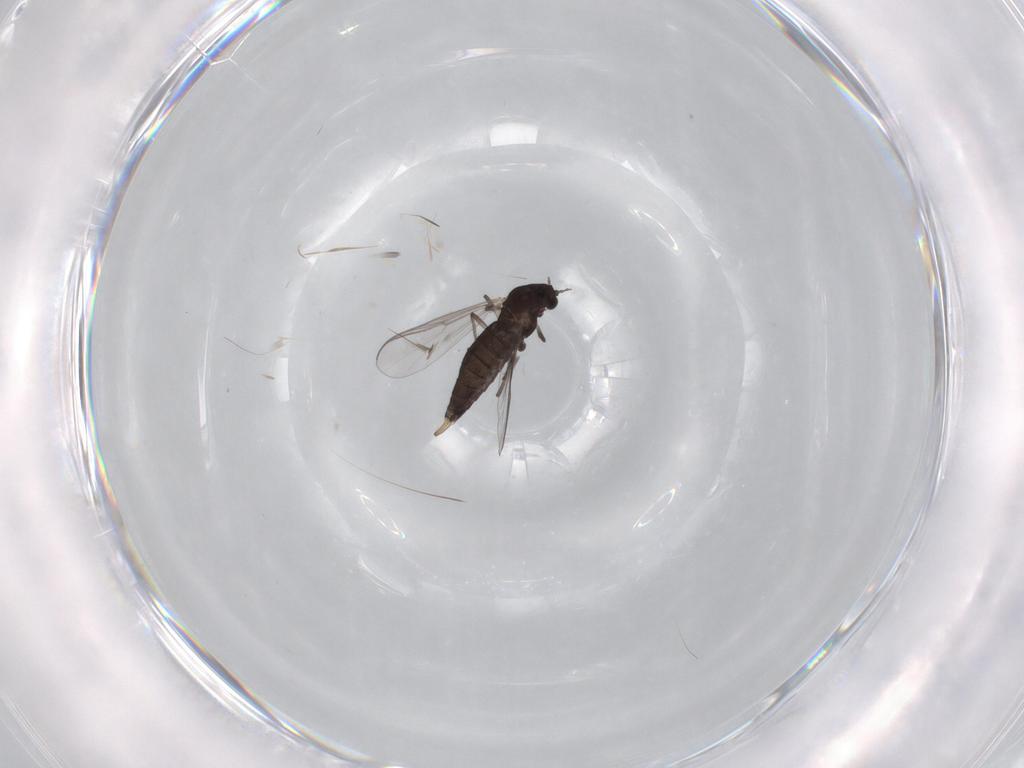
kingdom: Animalia
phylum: Arthropoda
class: Insecta
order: Diptera
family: Chironomidae
